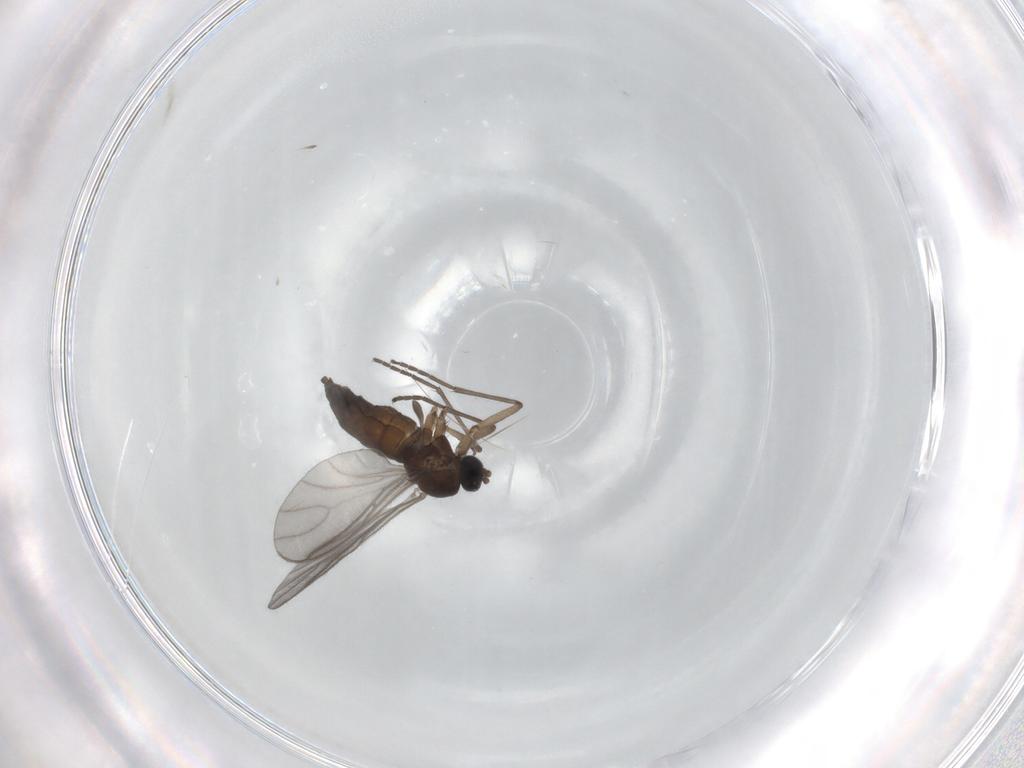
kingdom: Animalia
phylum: Arthropoda
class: Insecta
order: Diptera
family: Sciaridae
